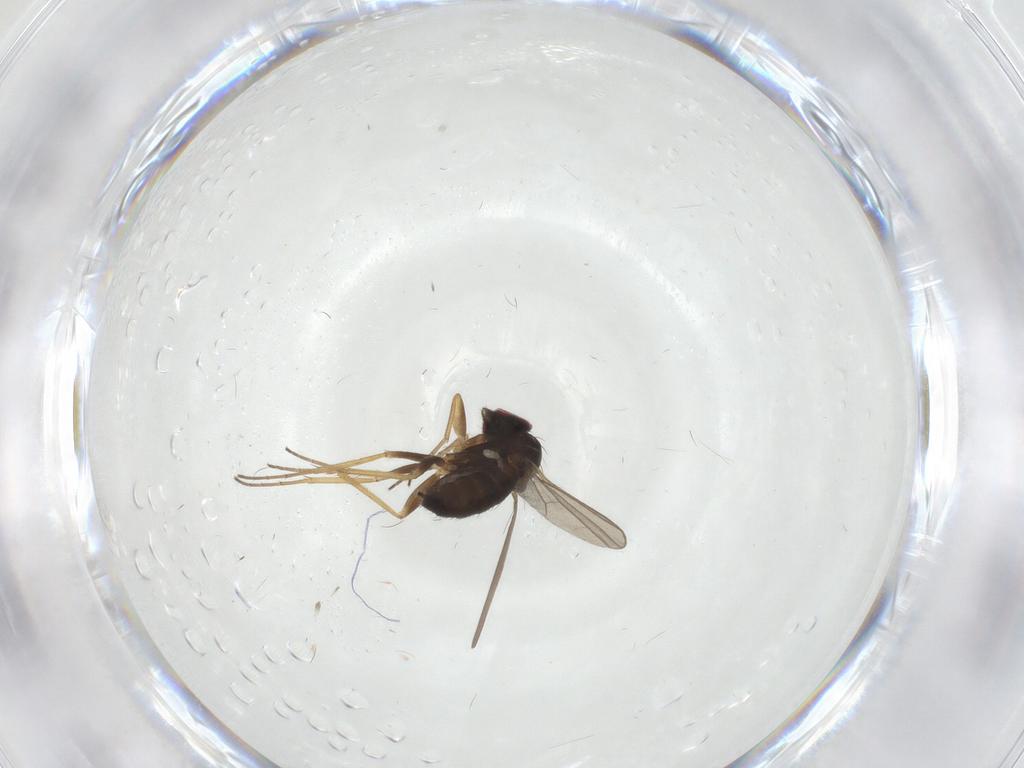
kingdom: Animalia
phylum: Arthropoda
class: Insecta
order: Diptera
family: Dolichopodidae
